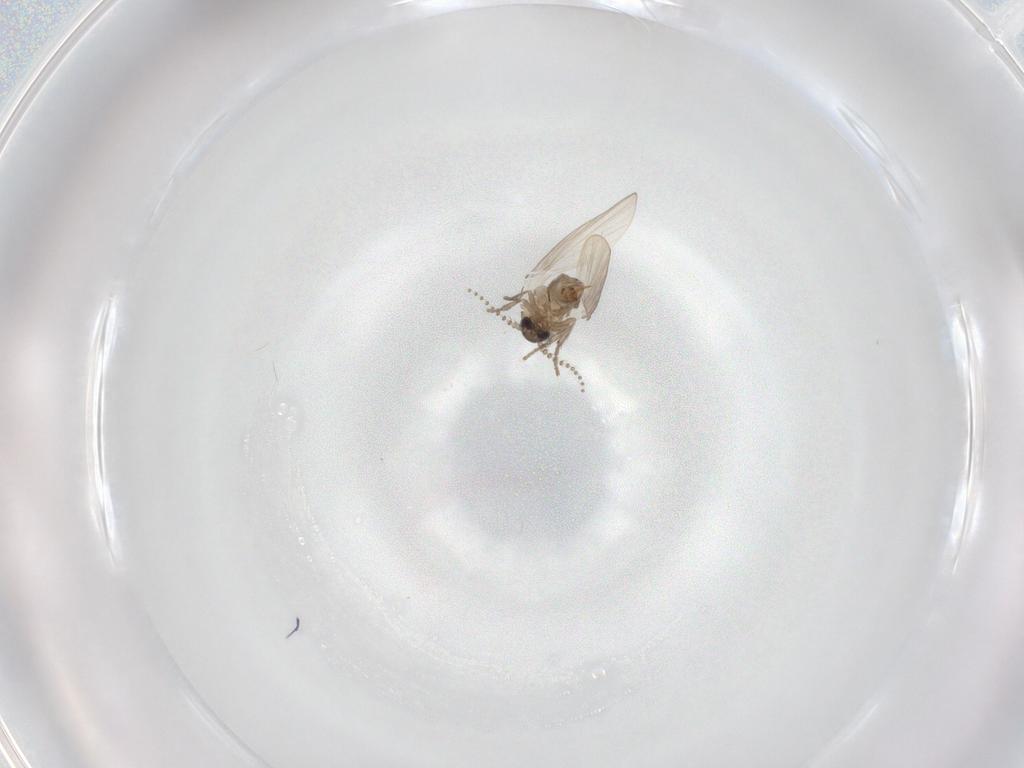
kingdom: Animalia
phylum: Arthropoda
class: Insecta
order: Diptera
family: Psychodidae
